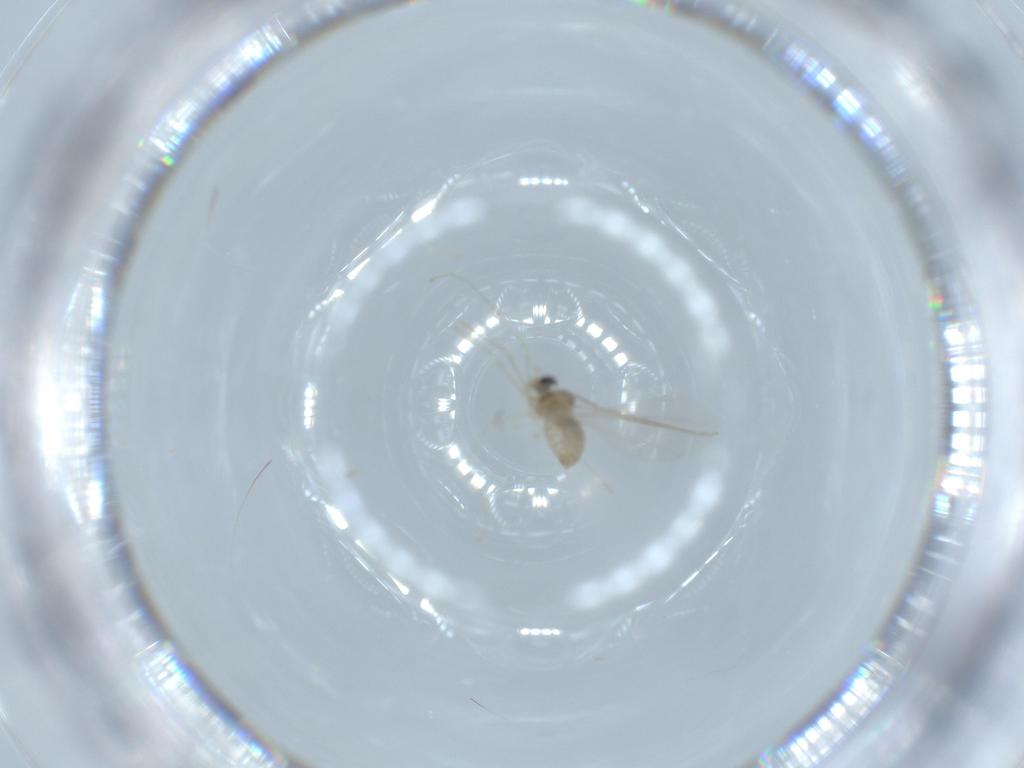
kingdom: Animalia
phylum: Arthropoda
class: Insecta
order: Diptera
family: Cecidomyiidae
